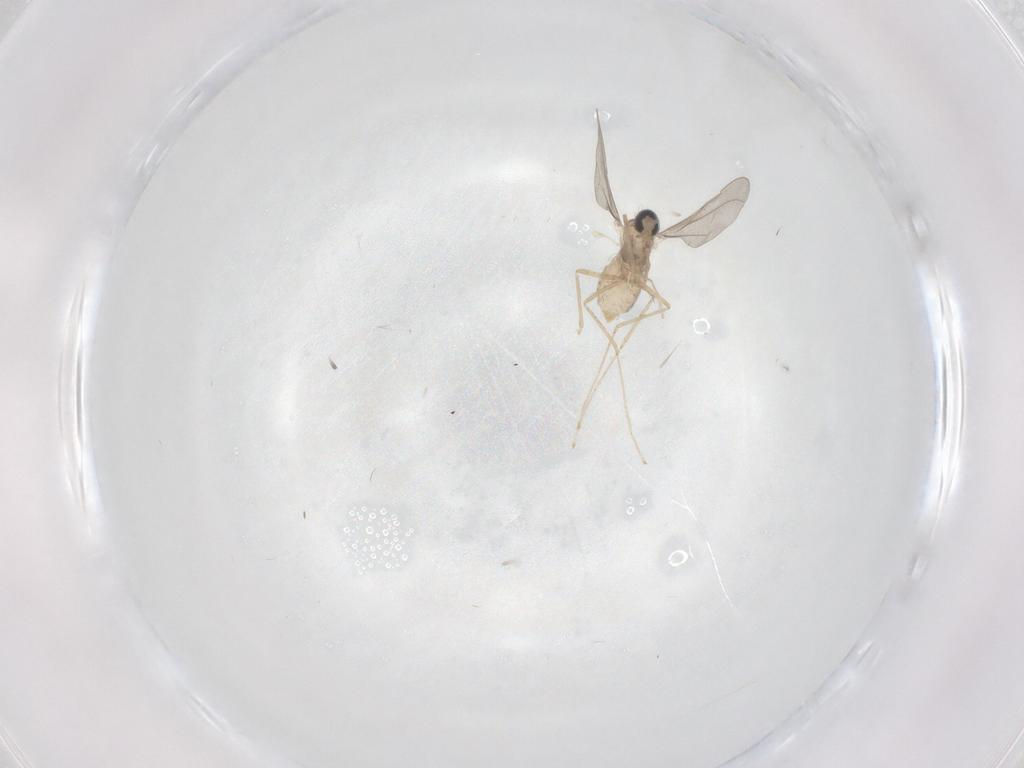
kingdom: Animalia
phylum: Arthropoda
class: Insecta
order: Diptera
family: Cecidomyiidae
